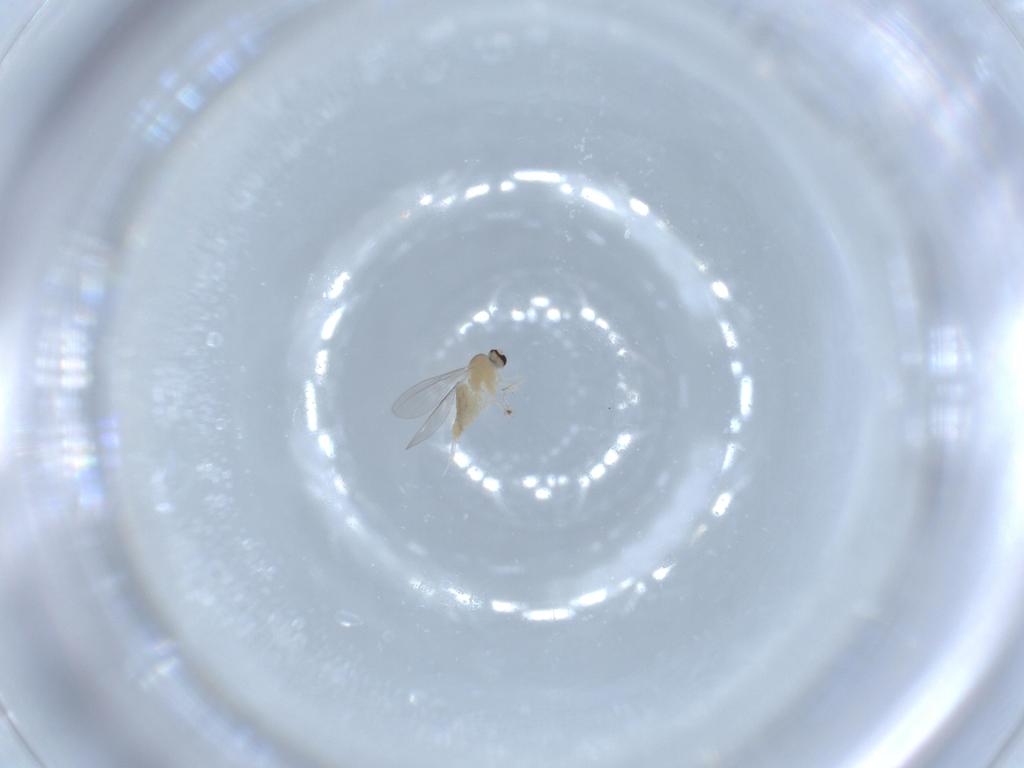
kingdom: Animalia
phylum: Arthropoda
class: Insecta
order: Diptera
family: Cecidomyiidae
